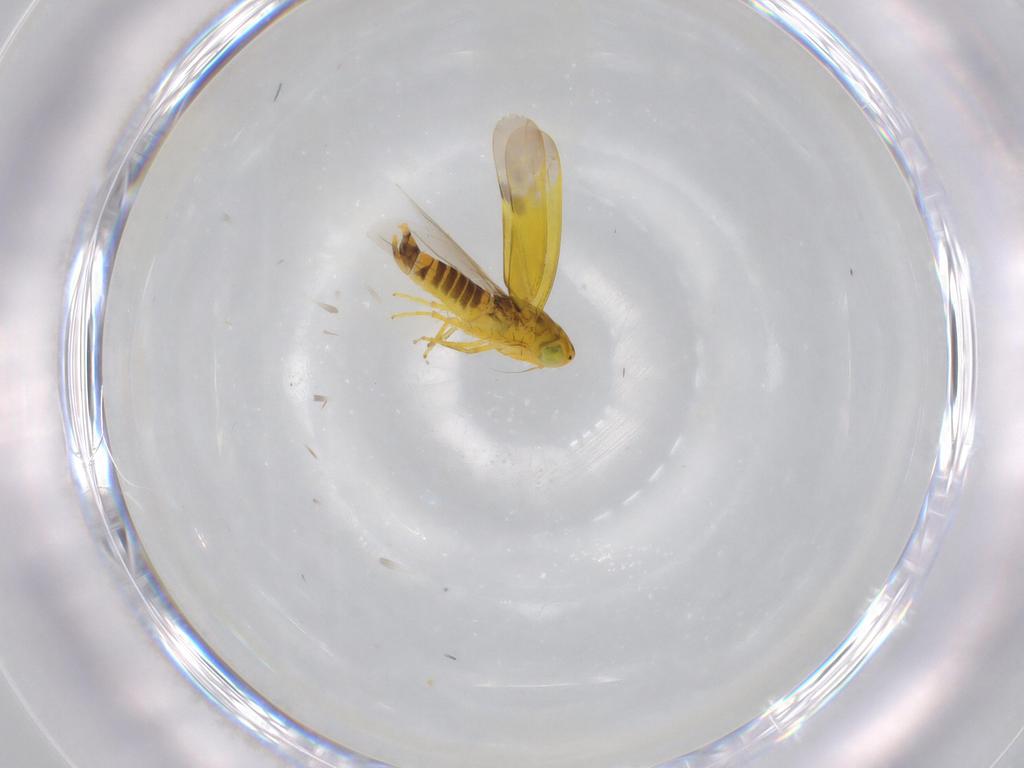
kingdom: Animalia
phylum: Arthropoda
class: Insecta
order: Hemiptera
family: Cicadellidae
